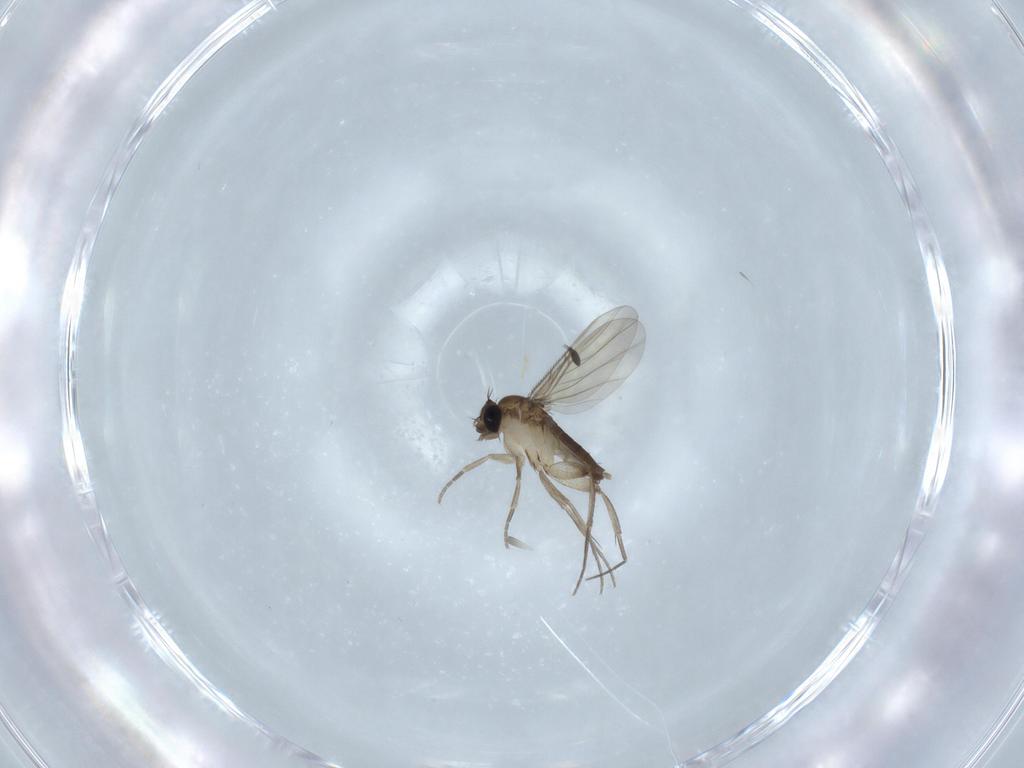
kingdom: Animalia
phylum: Arthropoda
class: Insecta
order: Diptera
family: Sciaridae
